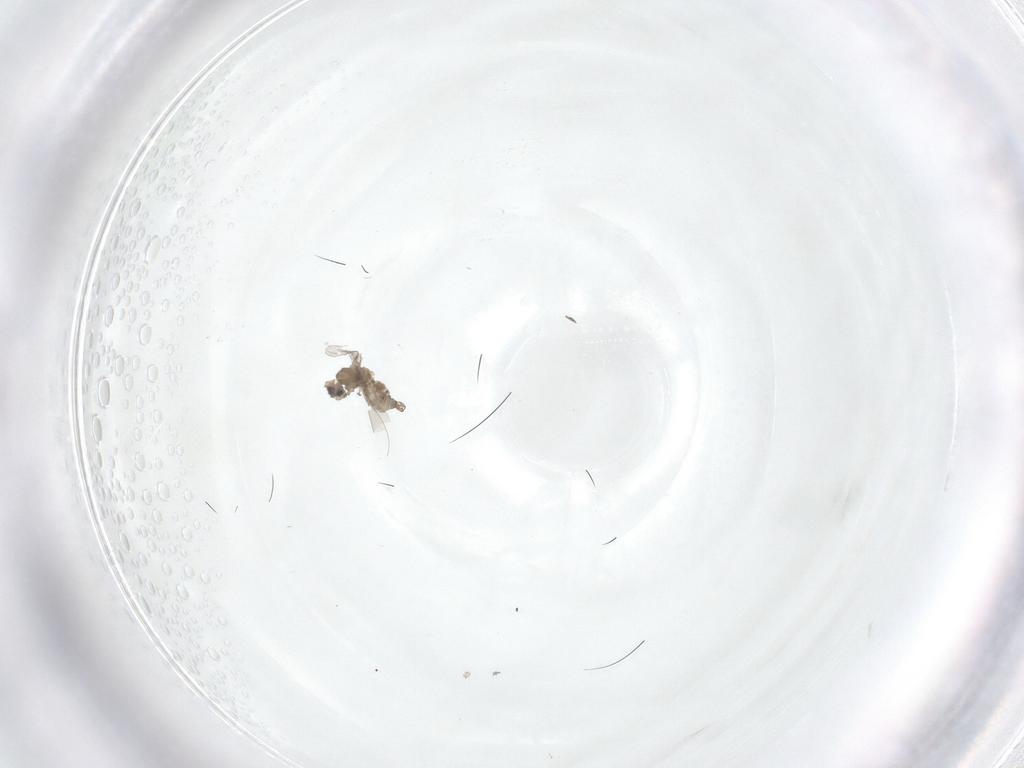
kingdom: Animalia
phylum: Arthropoda
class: Insecta
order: Diptera
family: Tabanidae
